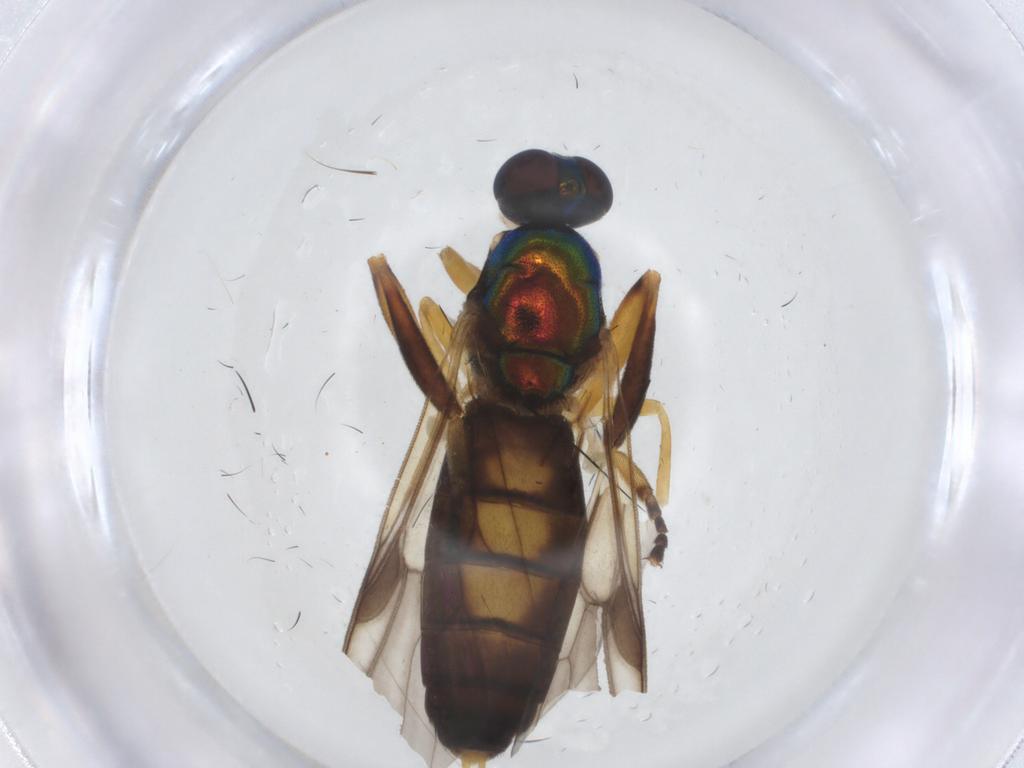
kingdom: Animalia
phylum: Arthropoda
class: Insecta
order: Diptera
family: Stratiomyidae
